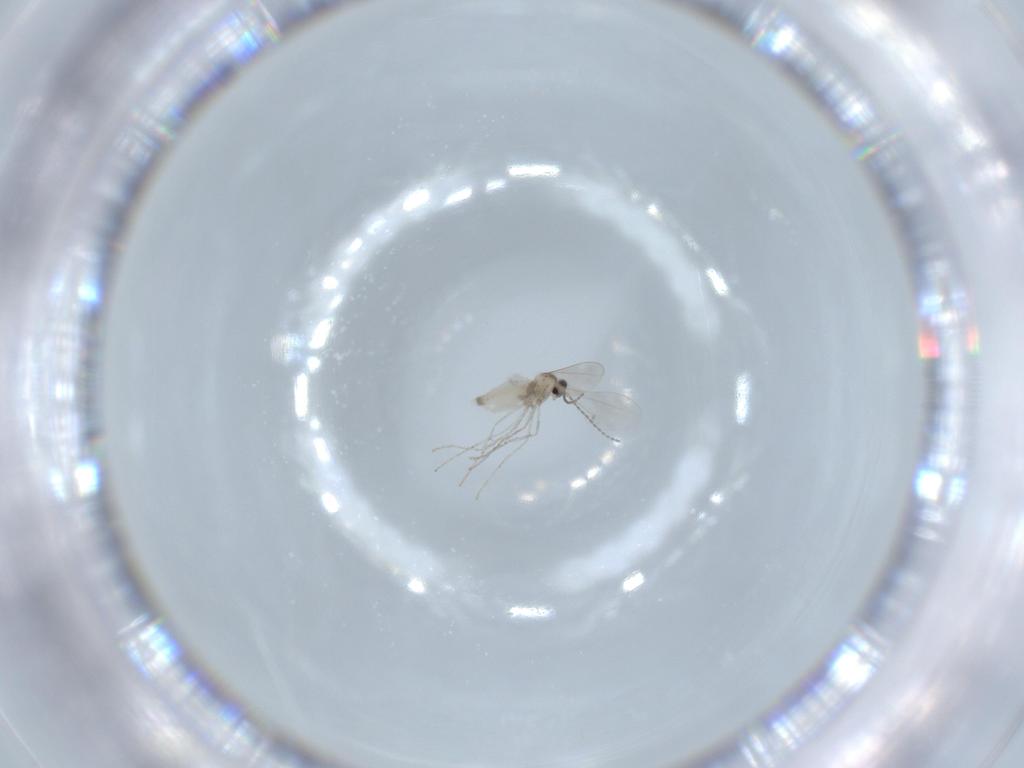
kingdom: Animalia
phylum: Arthropoda
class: Insecta
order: Diptera
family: Cecidomyiidae
